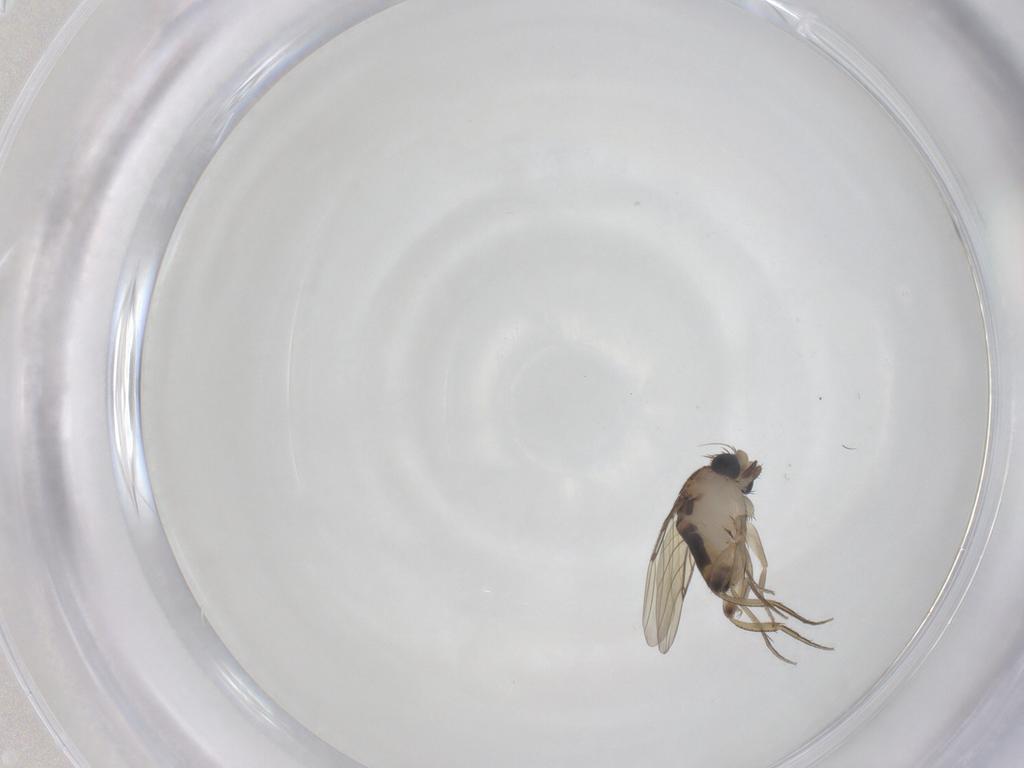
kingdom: Animalia
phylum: Arthropoda
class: Insecta
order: Diptera
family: Phoridae
